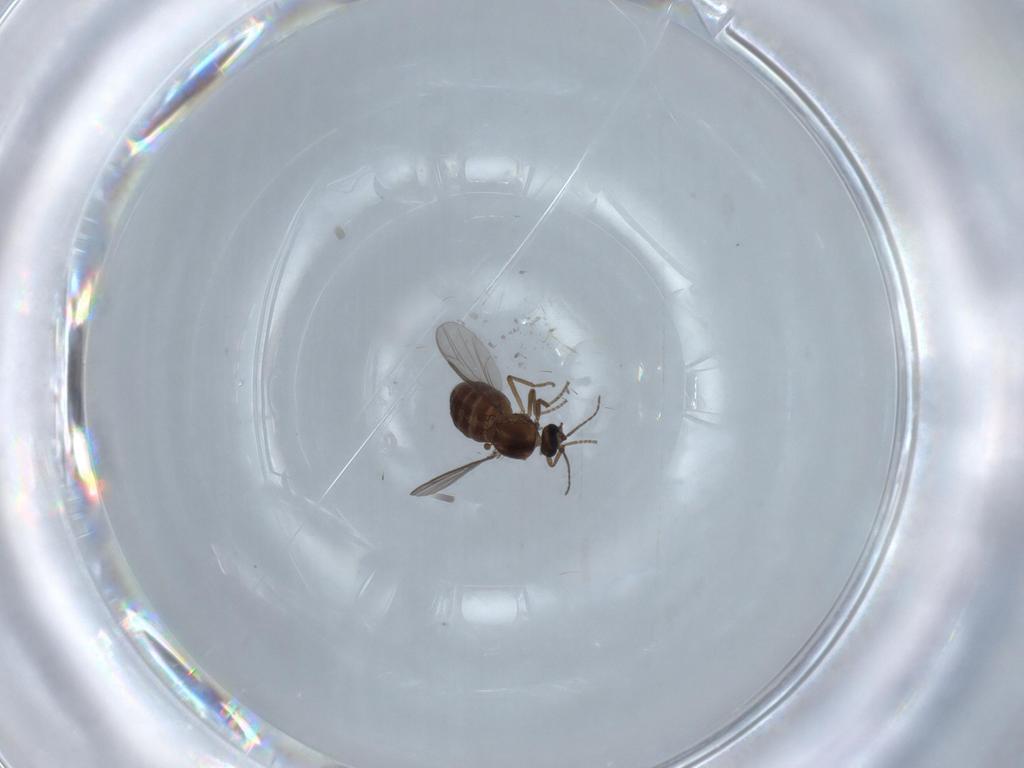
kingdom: Animalia
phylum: Arthropoda
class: Insecta
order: Diptera
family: Ceratopogonidae
